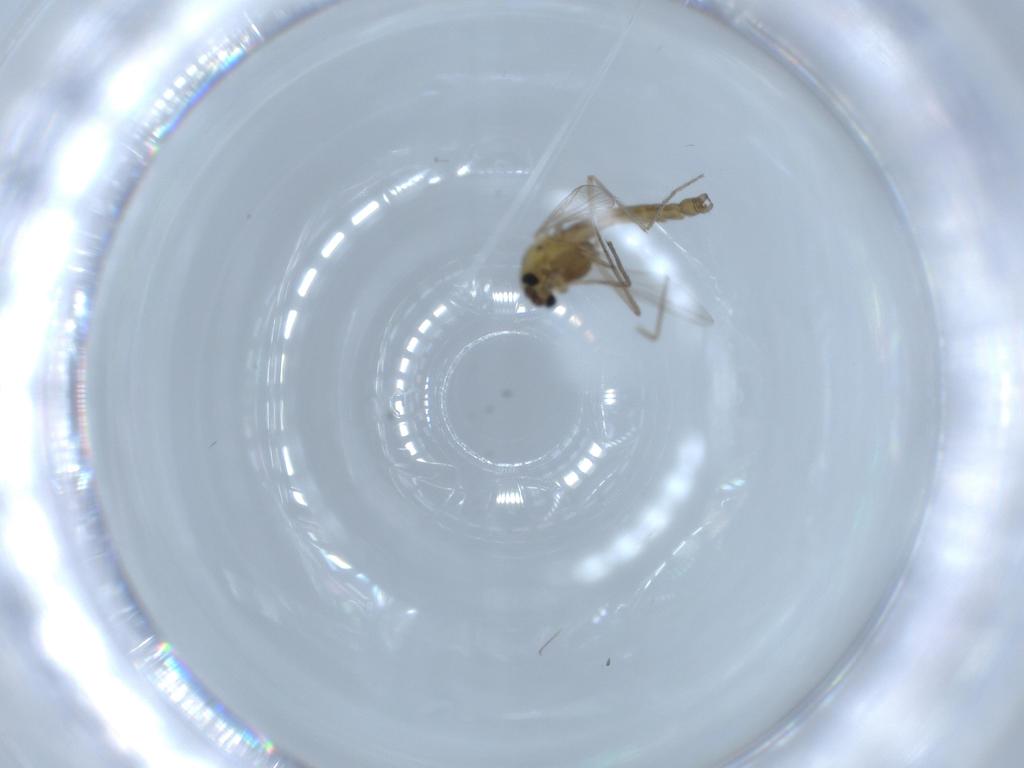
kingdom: Animalia
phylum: Arthropoda
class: Insecta
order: Diptera
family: Chironomidae
